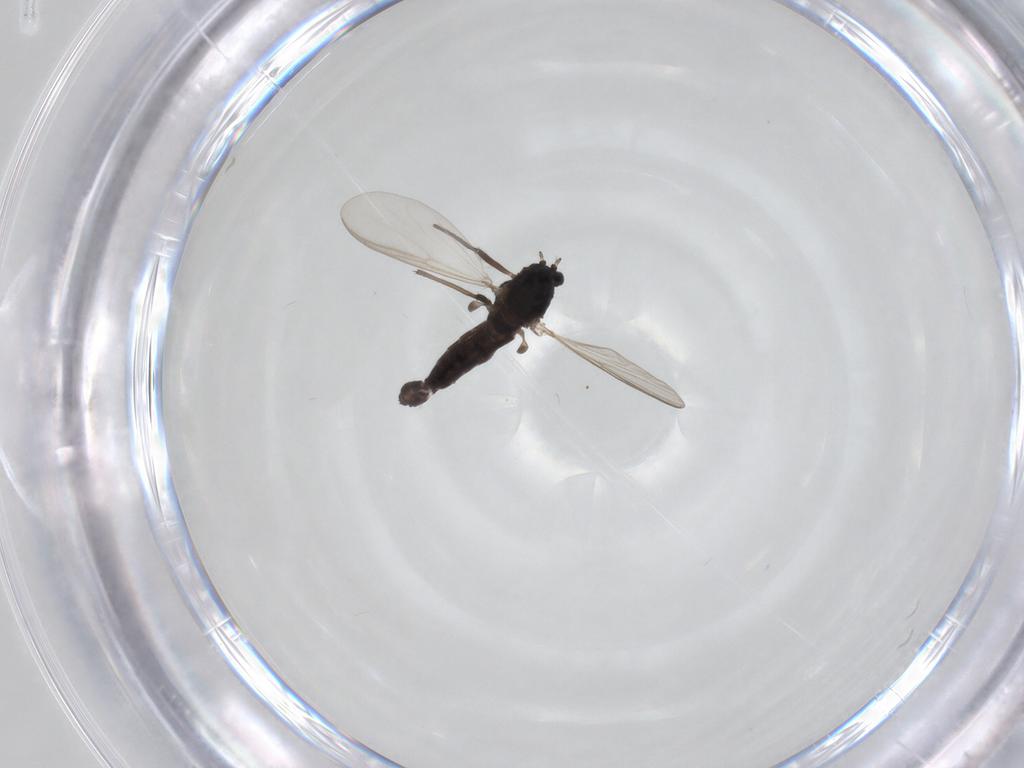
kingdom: Animalia
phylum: Arthropoda
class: Insecta
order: Diptera
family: Chironomidae
